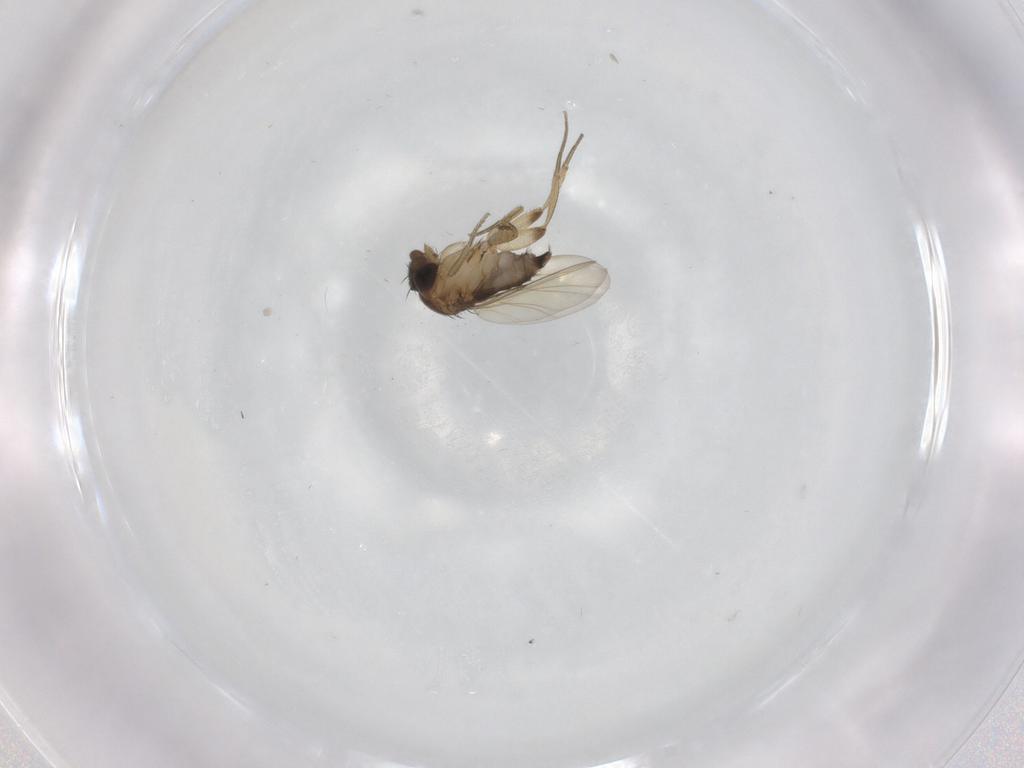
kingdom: Animalia
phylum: Arthropoda
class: Insecta
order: Diptera
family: Phoridae
